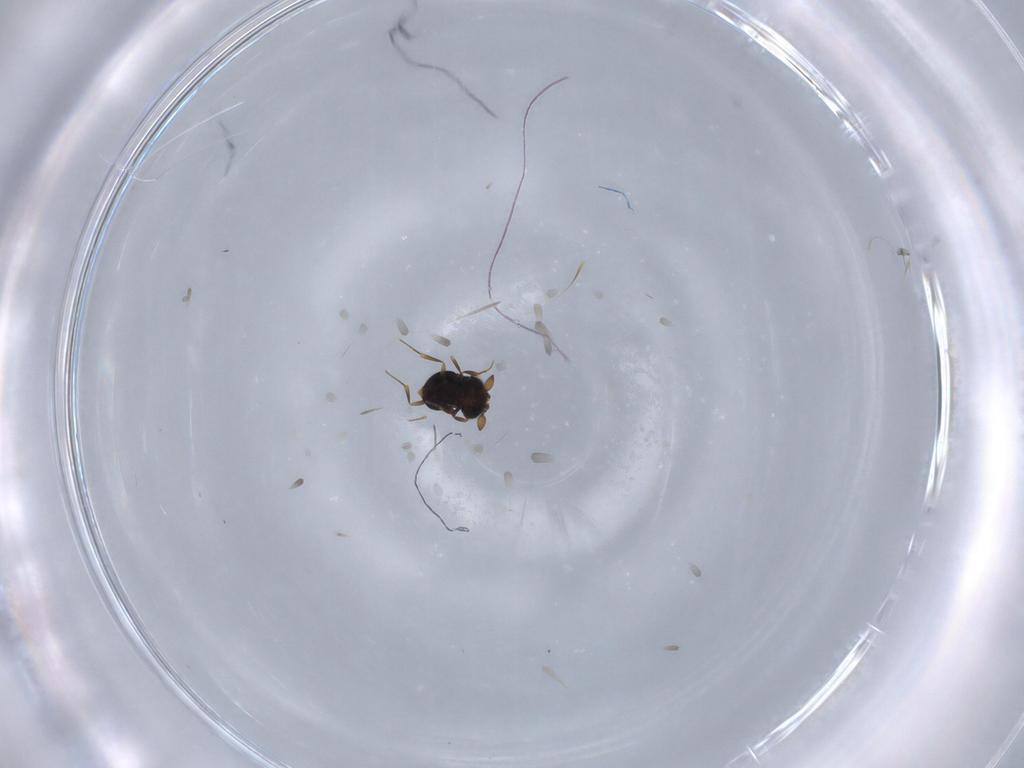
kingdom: Animalia
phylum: Arthropoda
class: Insecta
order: Hymenoptera
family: Scelionidae
